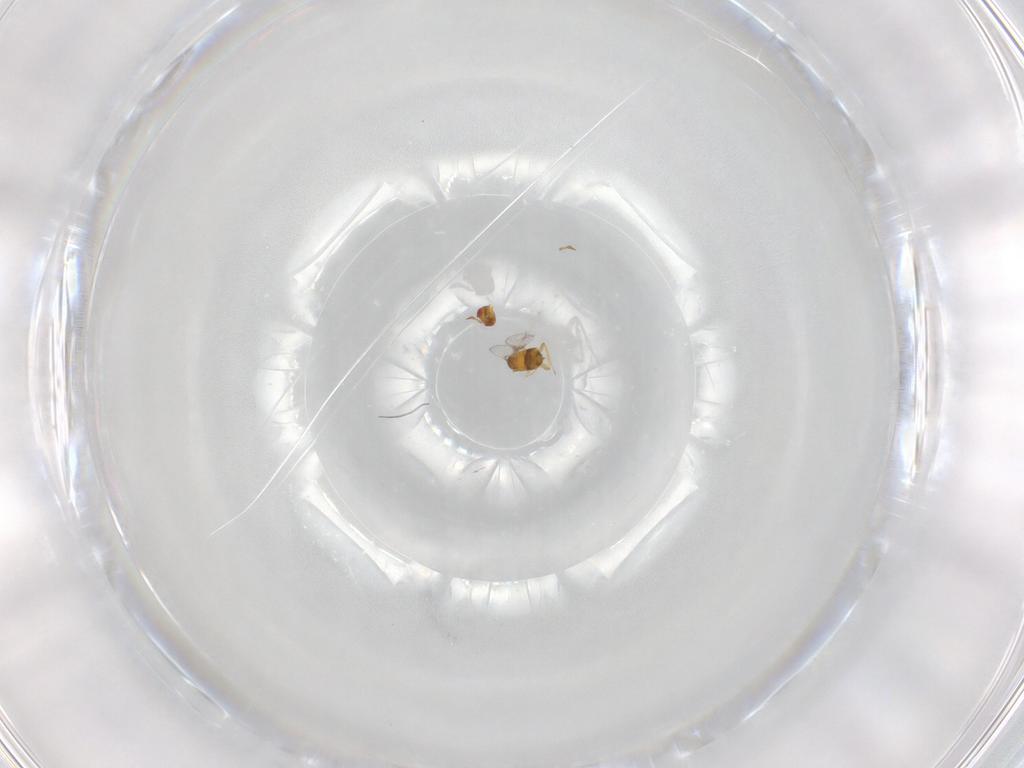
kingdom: Animalia
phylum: Arthropoda
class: Insecta
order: Hymenoptera
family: Trichogrammatidae
